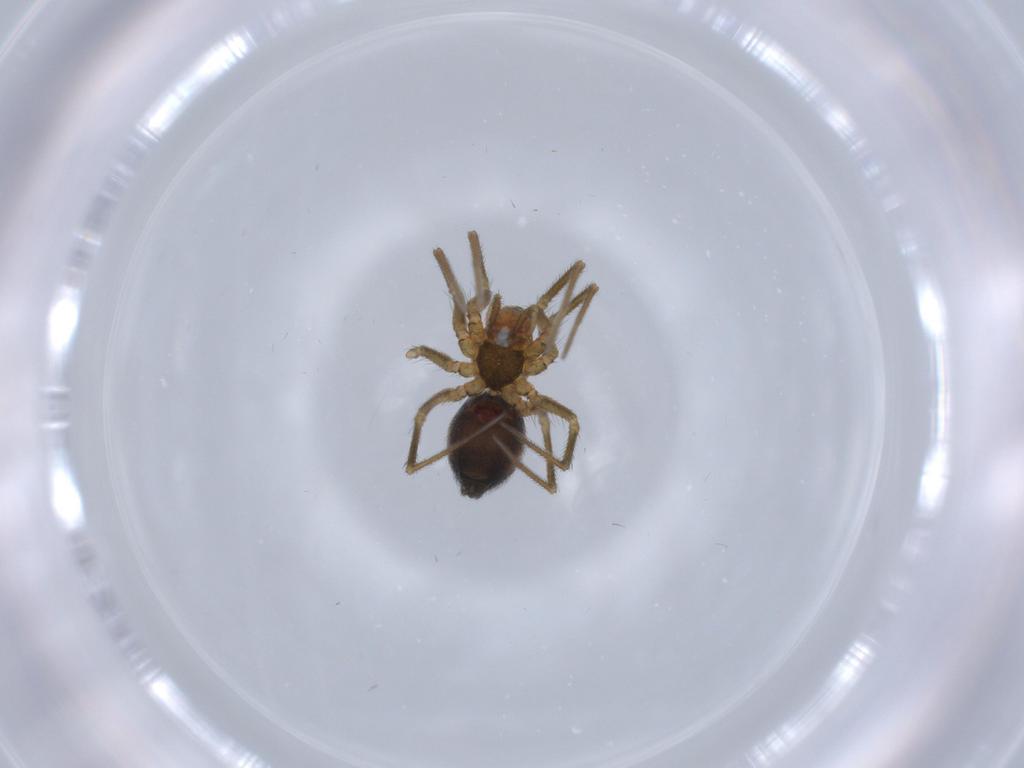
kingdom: Animalia
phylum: Arthropoda
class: Arachnida
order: Araneae
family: Linyphiidae
